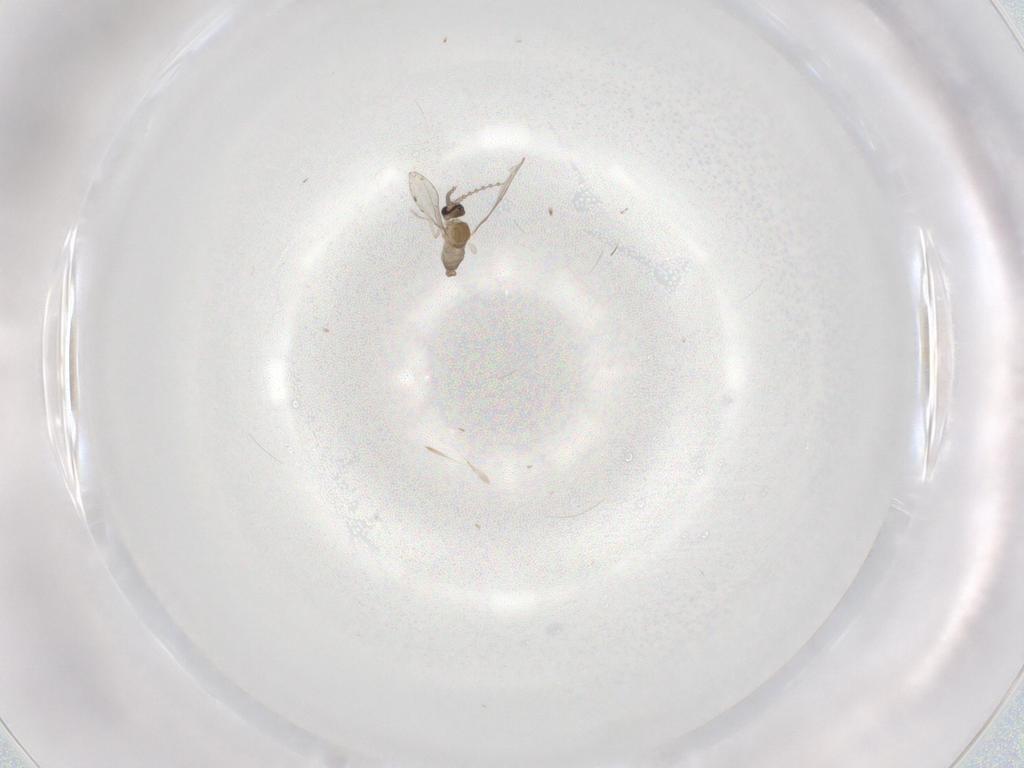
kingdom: Animalia
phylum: Arthropoda
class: Insecta
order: Diptera
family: Cecidomyiidae
